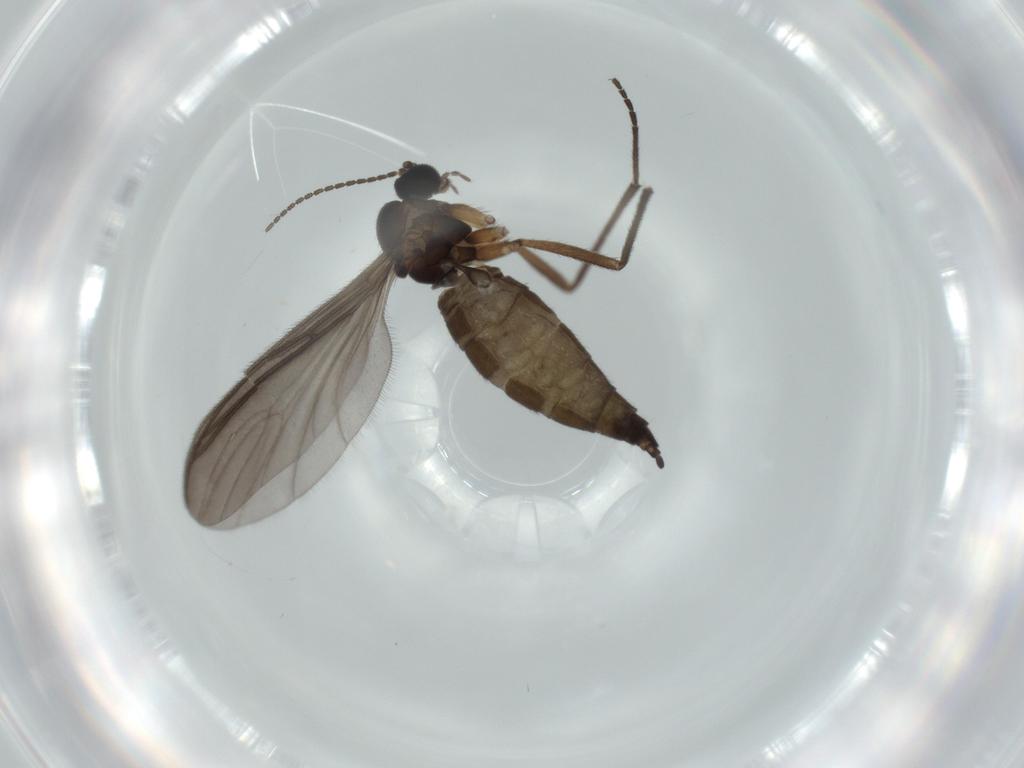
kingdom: Animalia
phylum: Arthropoda
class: Insecta
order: Diptera
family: Sciaridae
